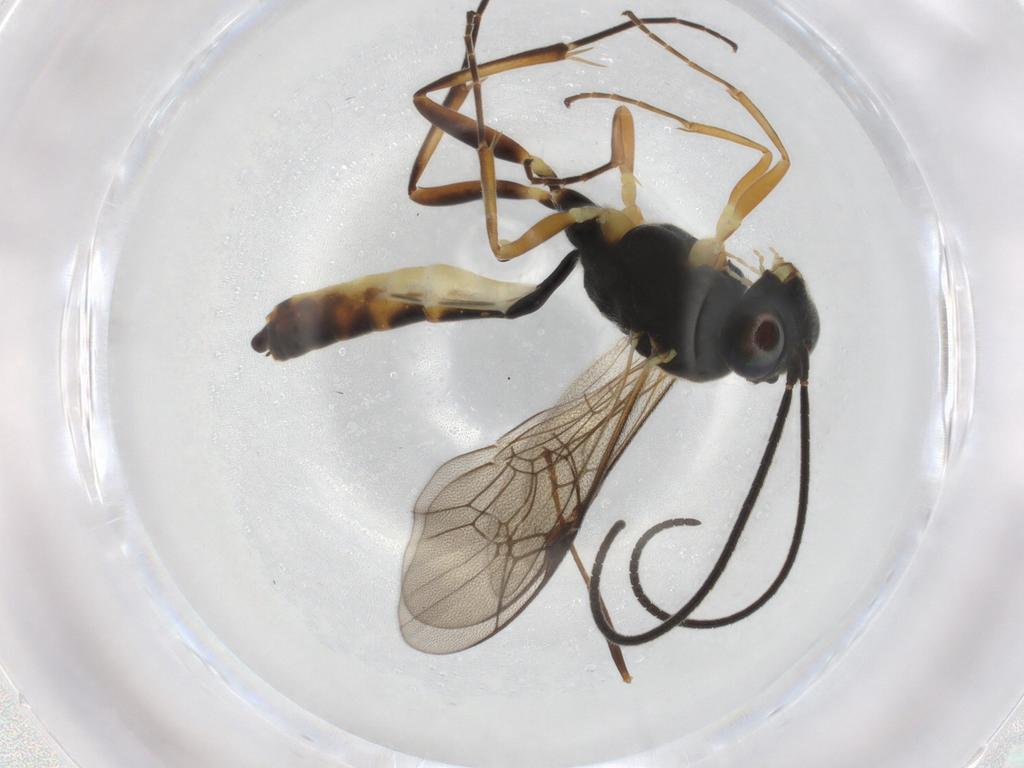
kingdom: Animalia
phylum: Arthropoda
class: Insecta
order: Hymenoptera
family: Ichneumonidae
